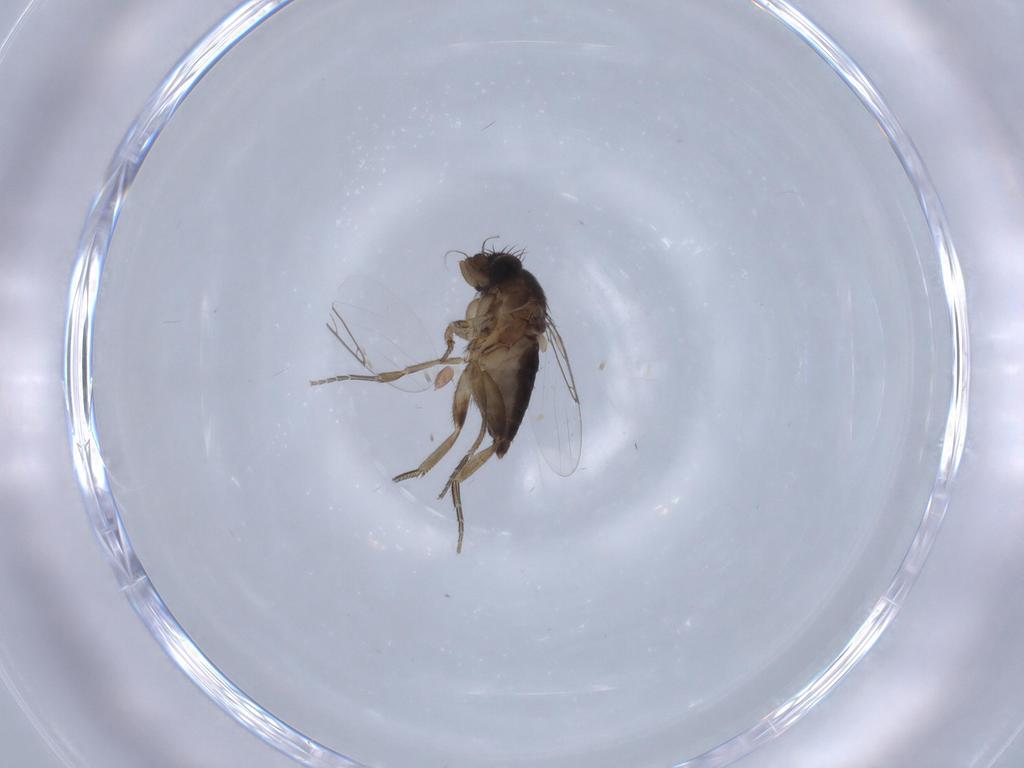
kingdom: Animalia
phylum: Arthropoda
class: Insecta
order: Diptera
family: Phoridae
